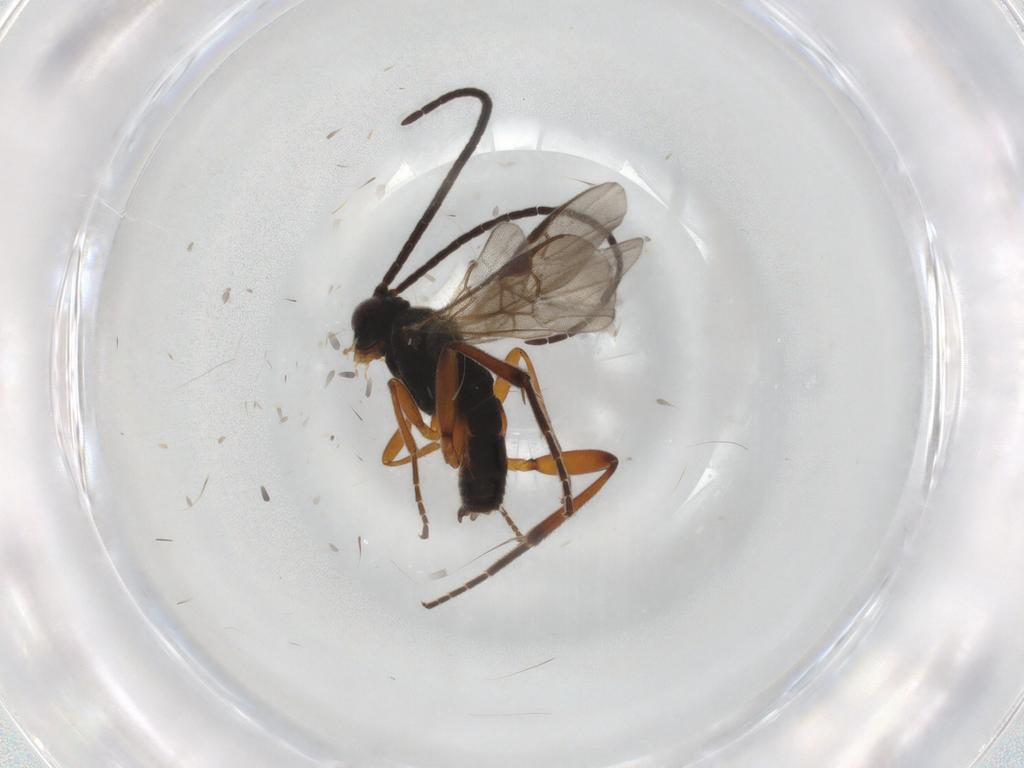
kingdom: Animalia
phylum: Arthropoda
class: Insecta
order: Hymenoptera
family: Braconidae
